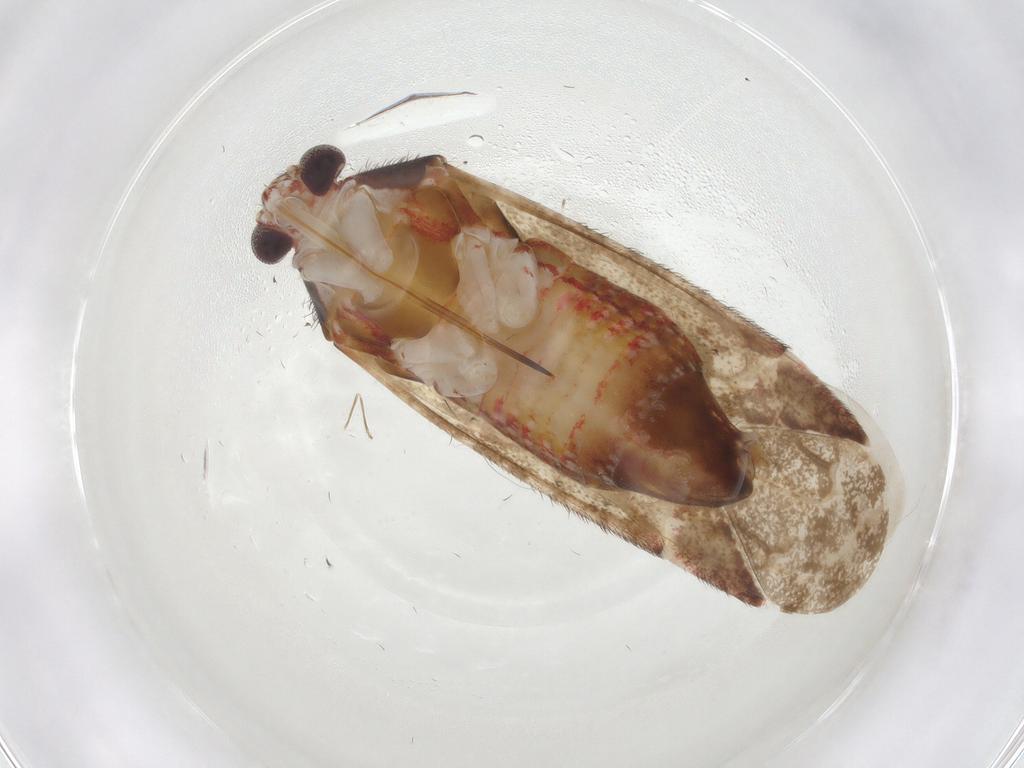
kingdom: Animalia
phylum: Arthropoda
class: Insecta
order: Hemiptera
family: Miridae
